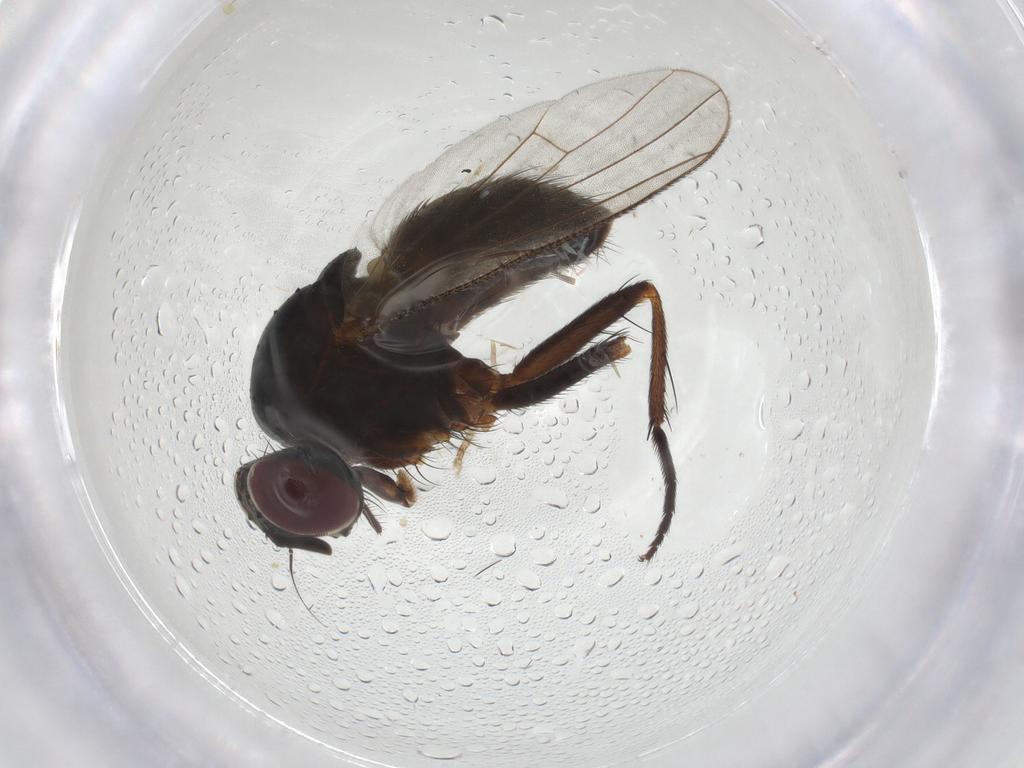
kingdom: Animalia
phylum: Arthropoda
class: Insecta
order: Diptera
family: Muscidae
